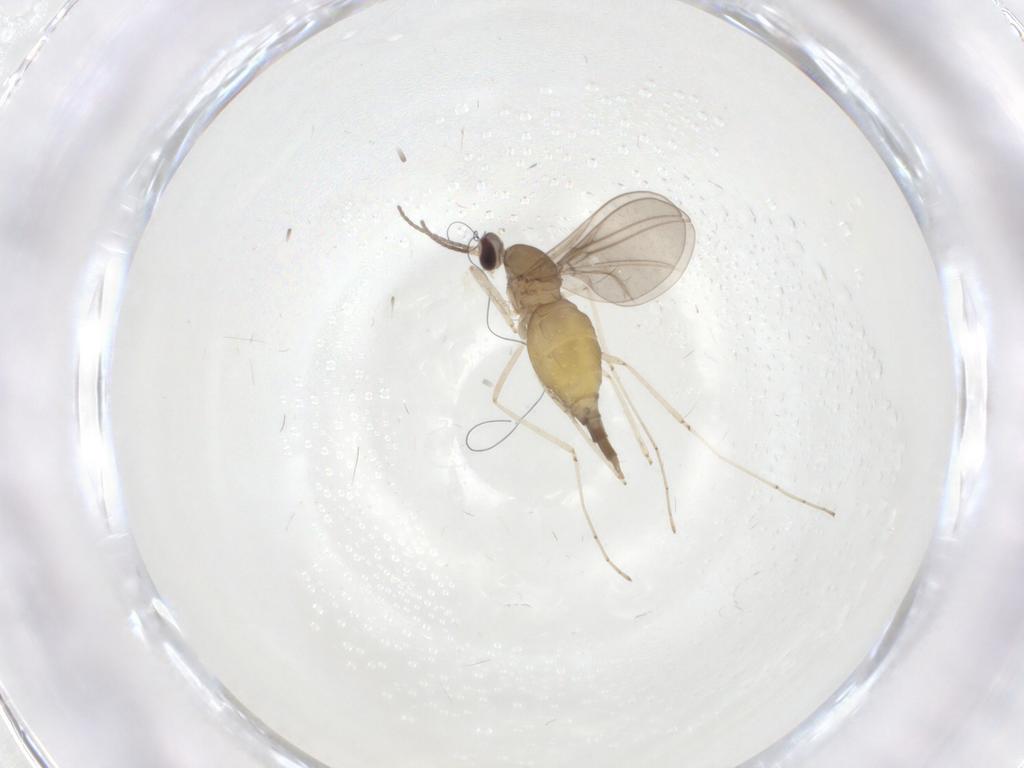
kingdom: Animalia
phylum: Arthropoda
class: Insecta
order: Diptera
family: Cecidomyiidae
